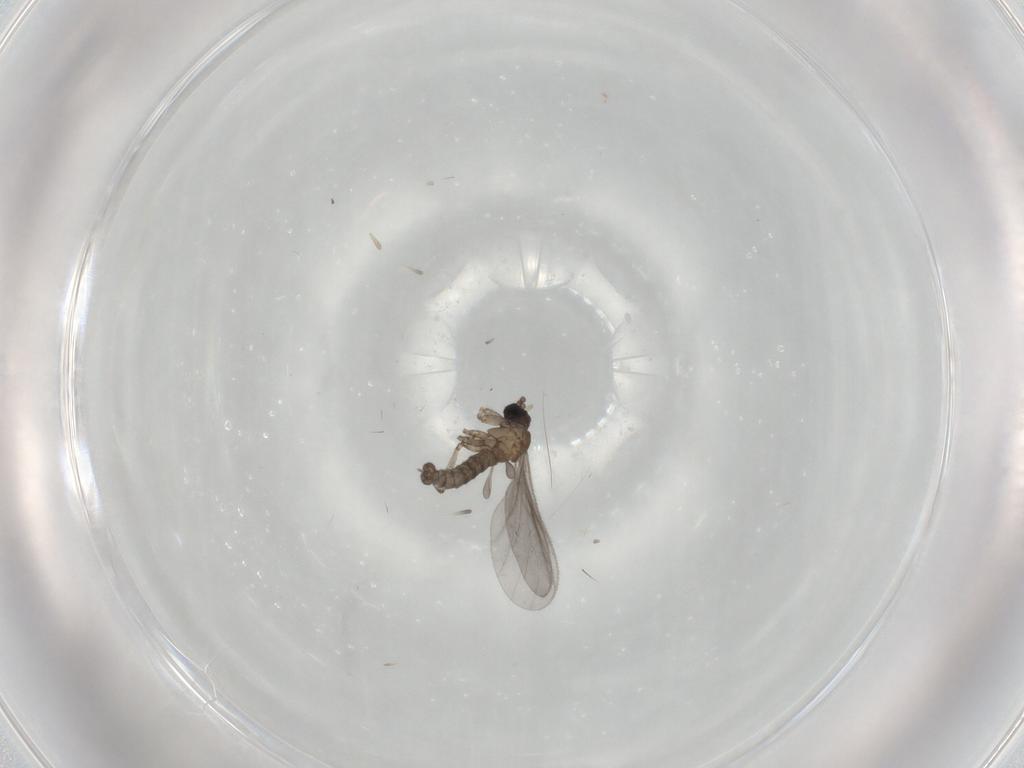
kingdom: Animalia
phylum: Arthropoda
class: Insecta
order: Diptera
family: Sciaridae
